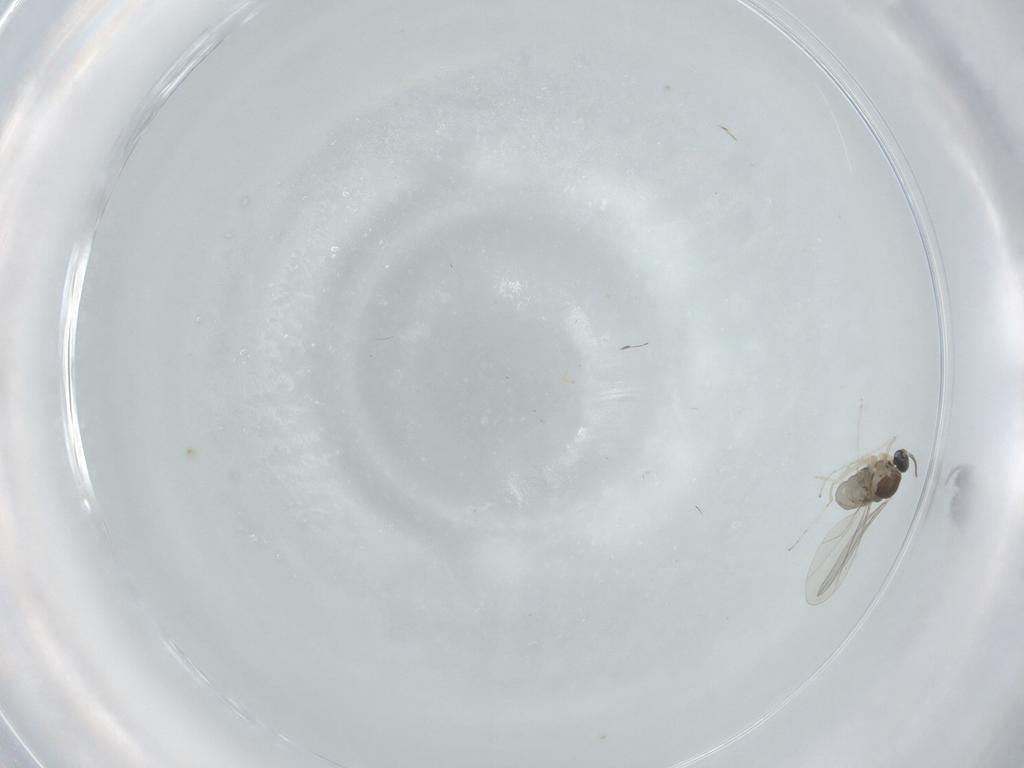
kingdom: Animalia
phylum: Arthropoda
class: Insecta
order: Diptera
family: Cecidomyiidae
